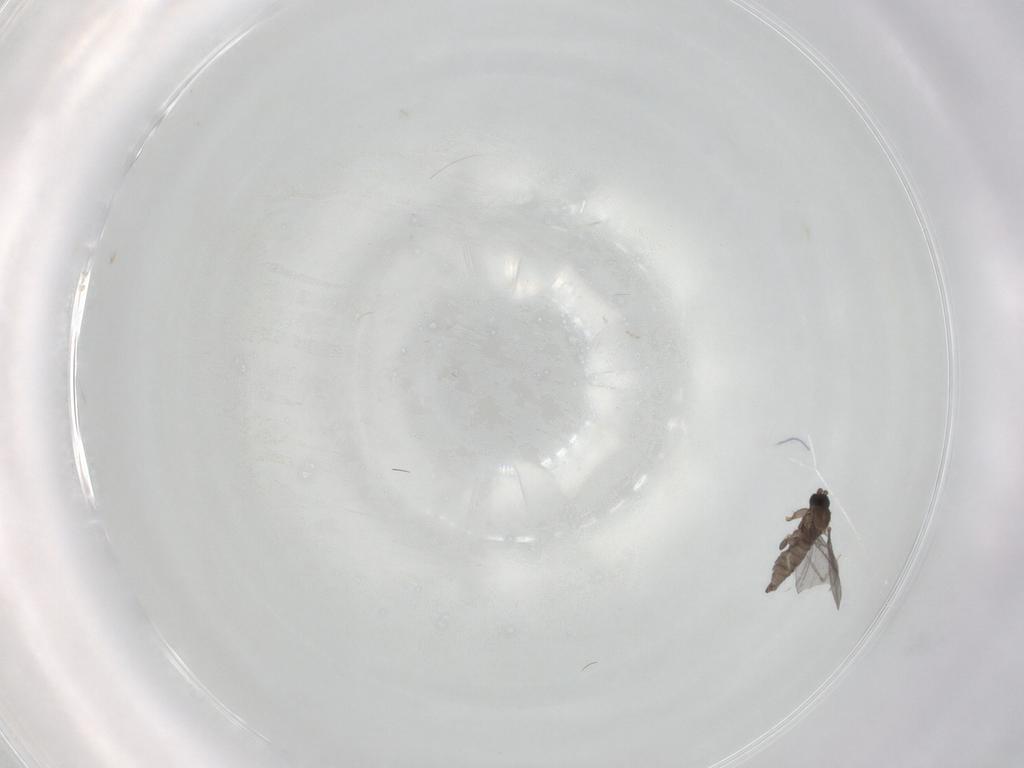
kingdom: Animalia
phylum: Arthropoda
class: Insecta
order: Diptera
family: Sciaridae
